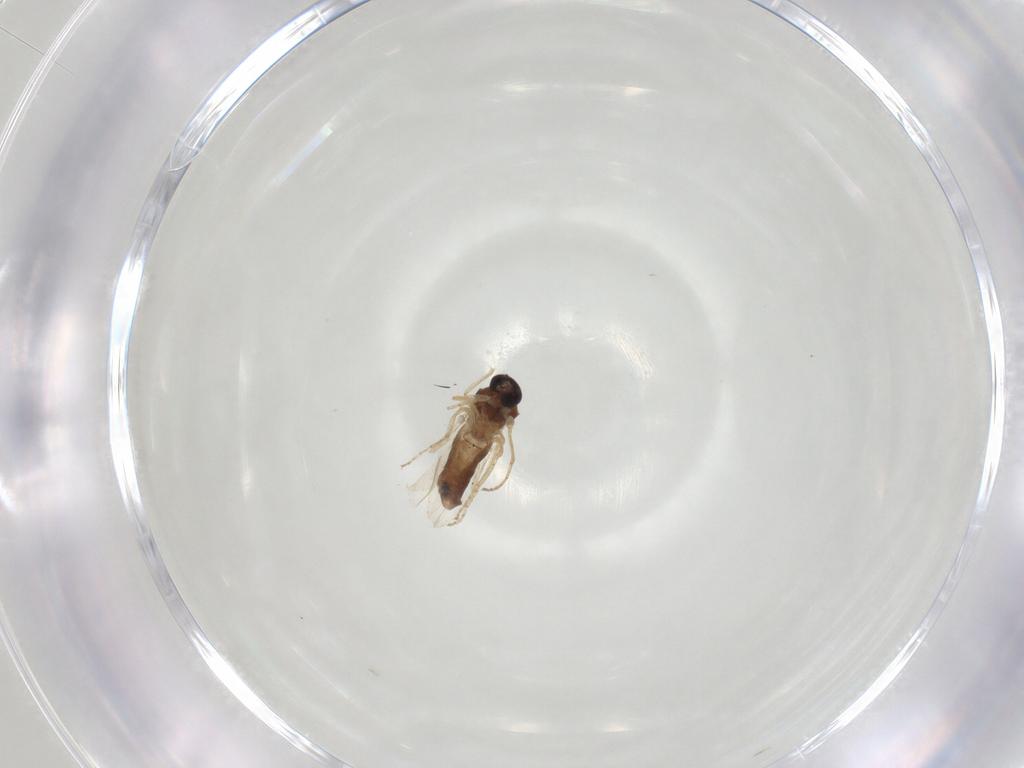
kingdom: Animalia
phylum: Arthropoda
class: Insecta
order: Diptera
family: Ceratopogonidae
